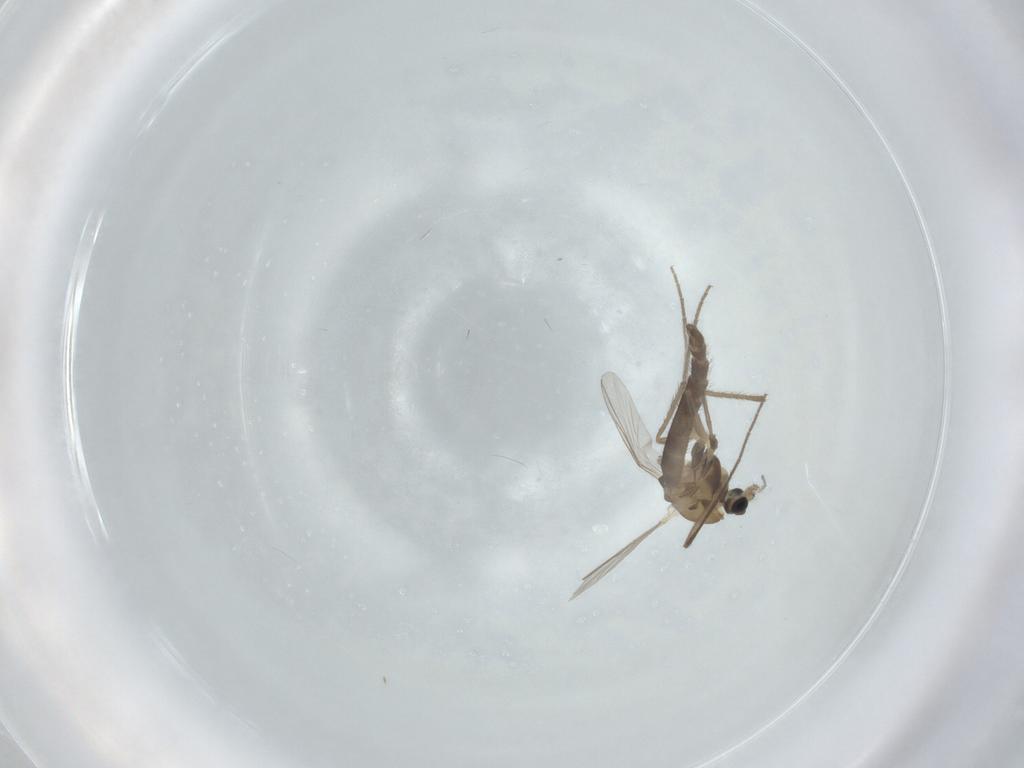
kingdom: Animalia
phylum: Arthropoda
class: Insecta
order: Diptera
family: Chironomidae
